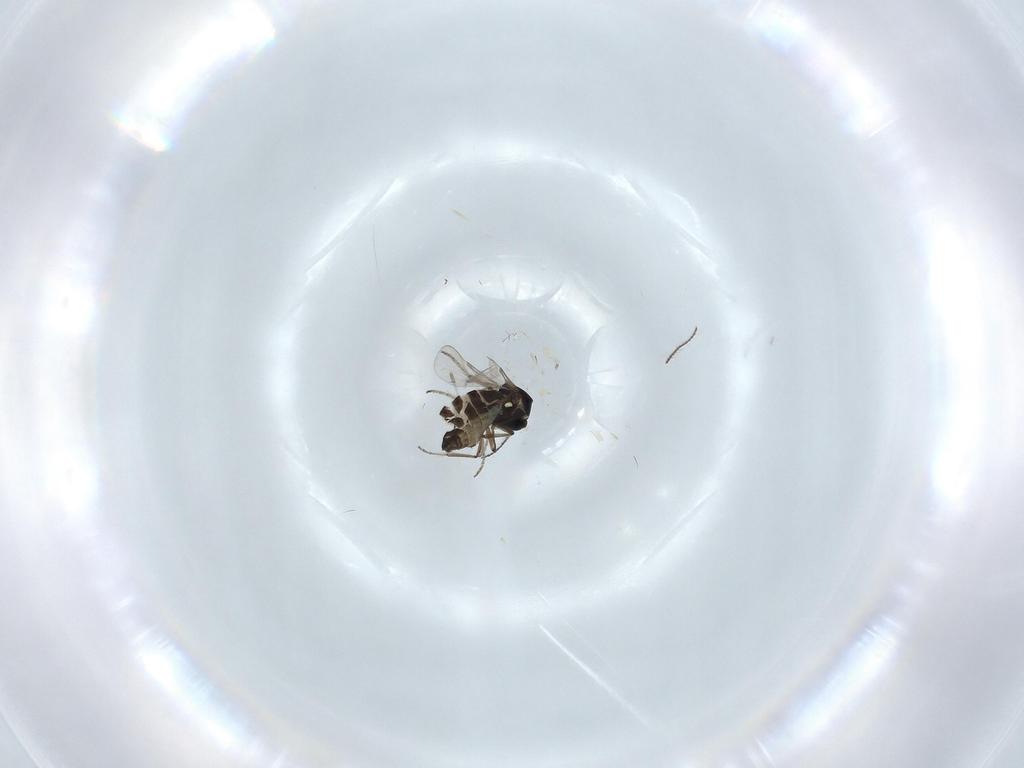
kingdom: Animalia
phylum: Arthropoda
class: Insecta
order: Diptera
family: Ceratopogonidae
